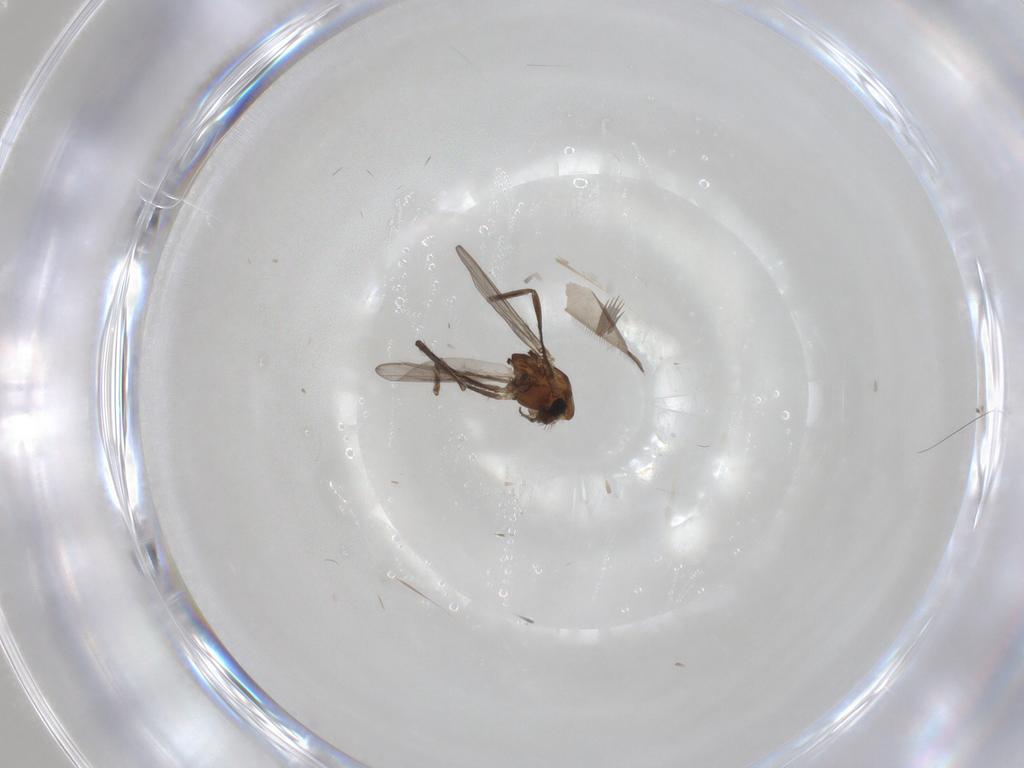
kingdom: Animalia
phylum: Arthropoda
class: Insecta
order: Diptera
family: Chironomidae
